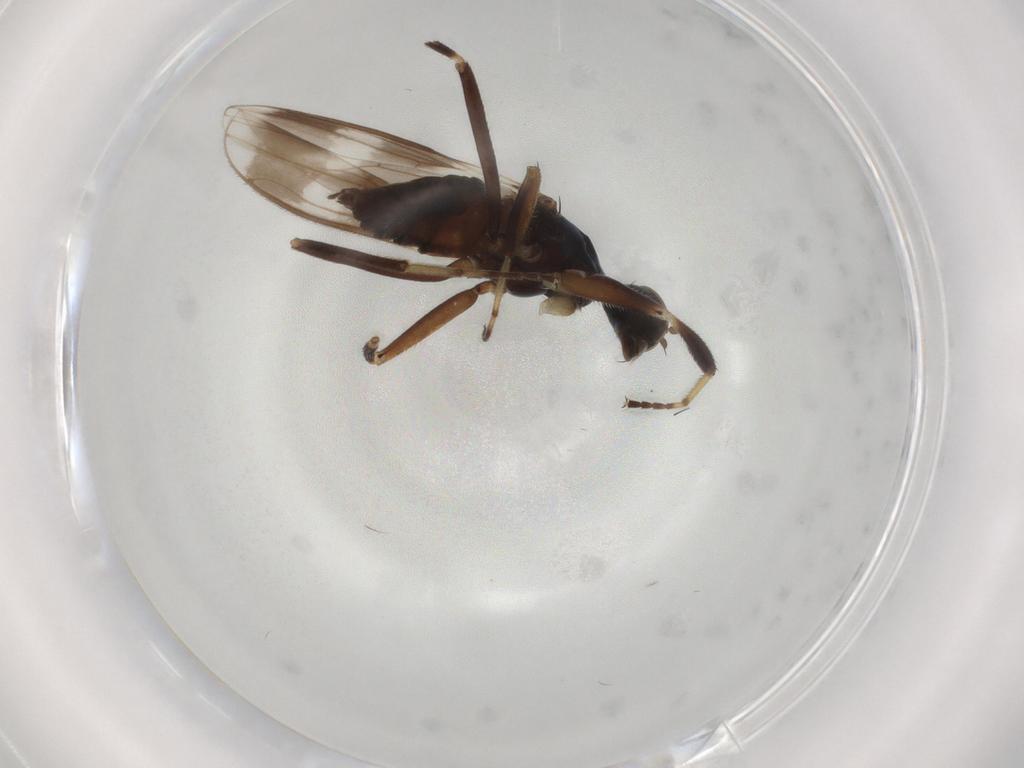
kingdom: Animalia
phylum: Arthropoda
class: Insecta
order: Diptera
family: Hybotidae
